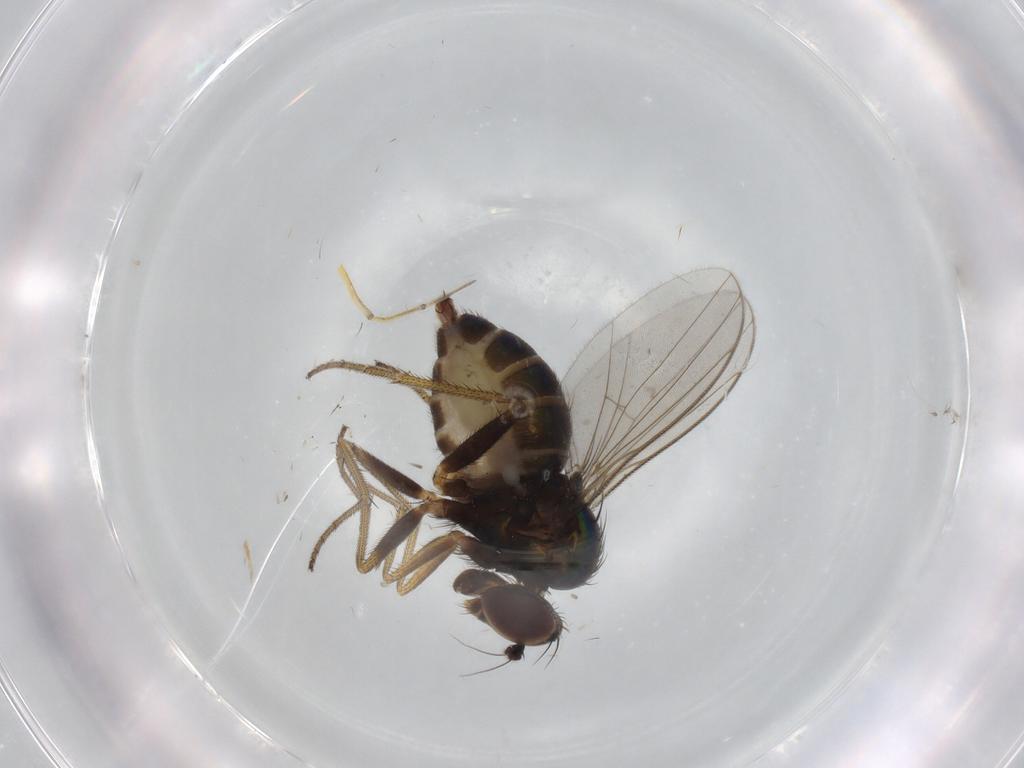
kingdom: Animalia
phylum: Arthropoda
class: Insecta
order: Diptera
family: Dolichopodidae
